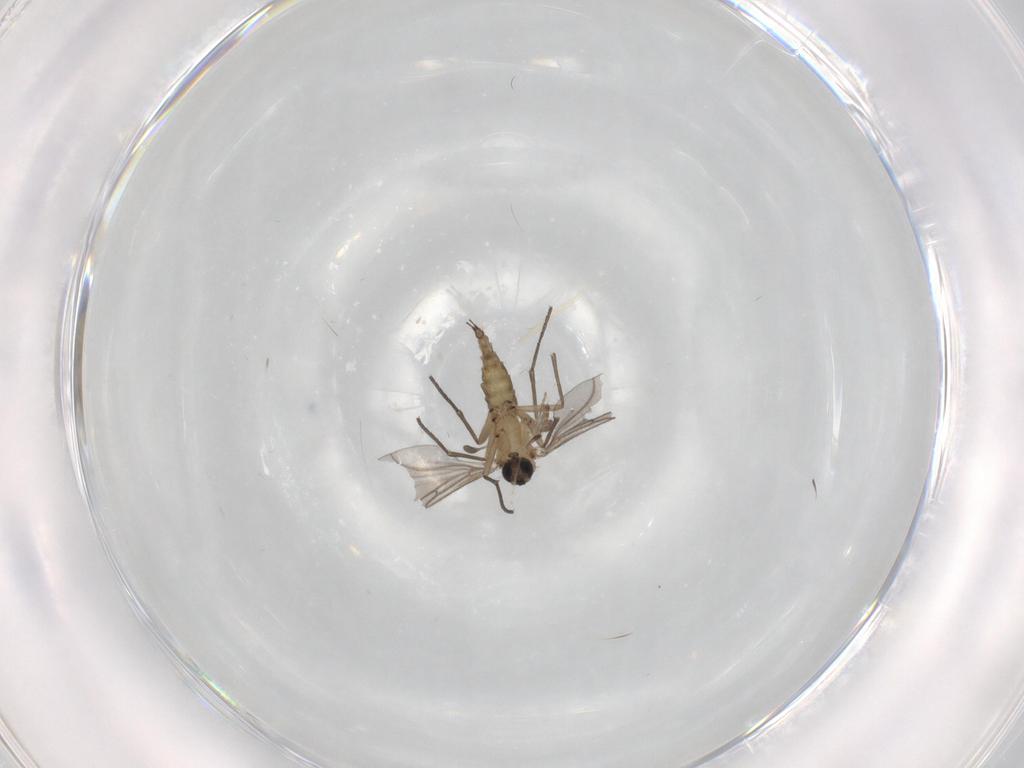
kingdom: Animalia
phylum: Arthropoda
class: Insecta
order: Diptera
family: Sciaridae
